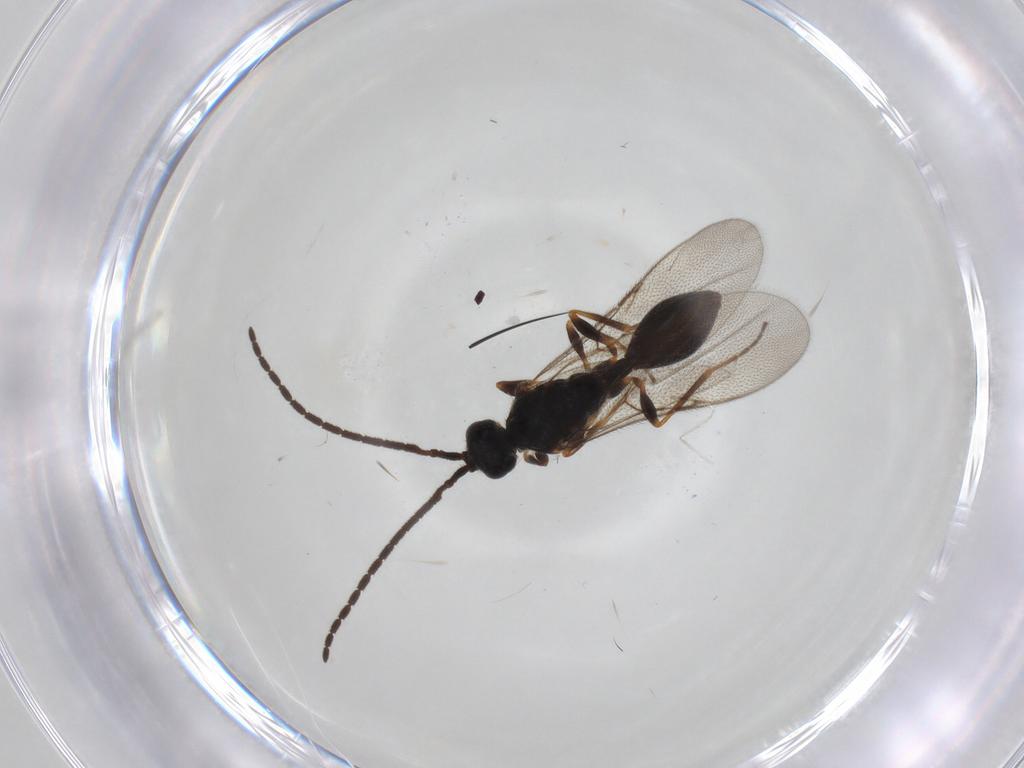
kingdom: Animalia
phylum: Arthropoda
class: Insecta
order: Hymenoptera
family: Diapriidae
